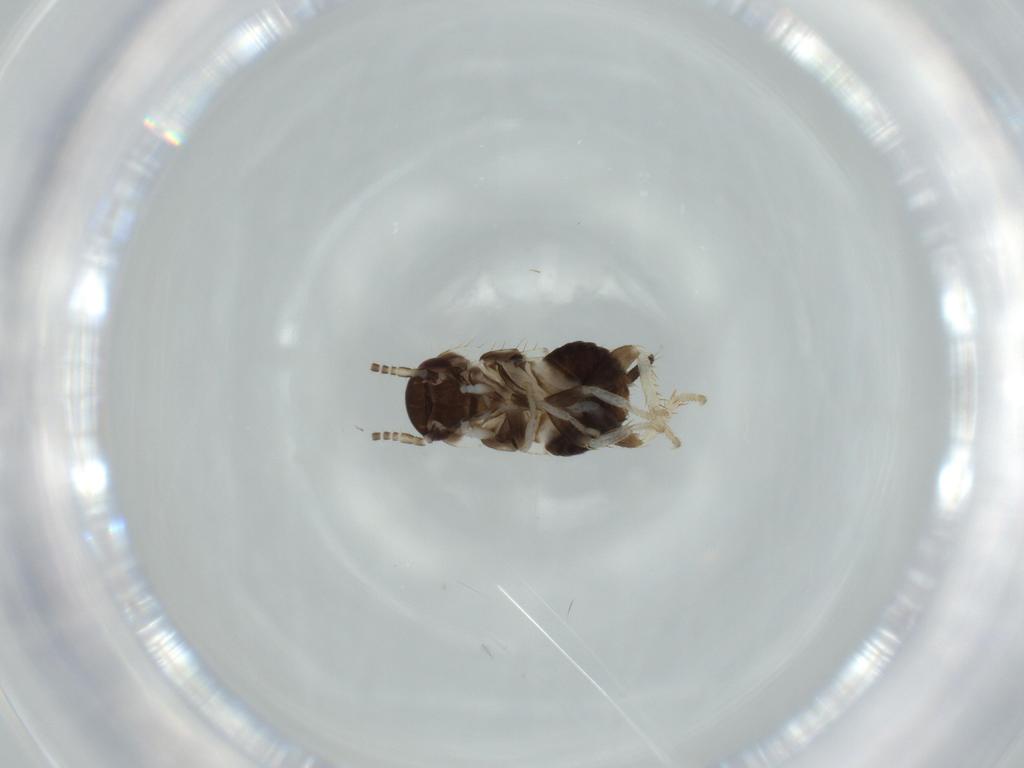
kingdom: Animalia
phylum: Arthropoda
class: Insecta
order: Blattodea
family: Ectobiidae
